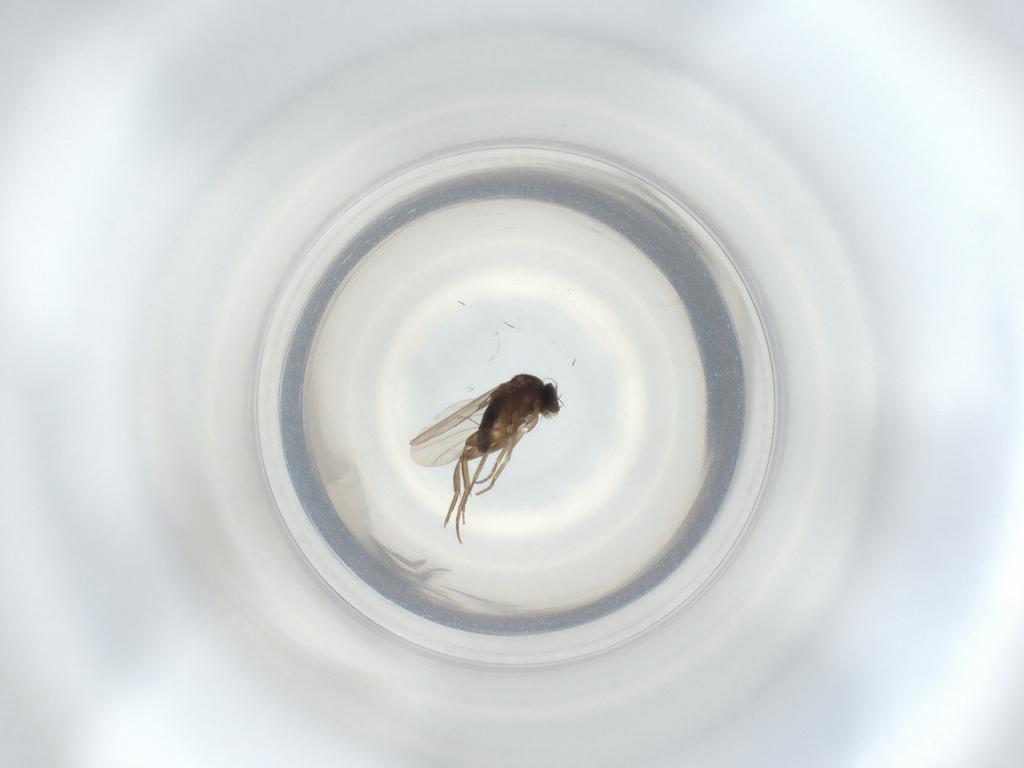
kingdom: Animalia
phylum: Arthropoda
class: Insecta
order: Diptera
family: Phoridae
